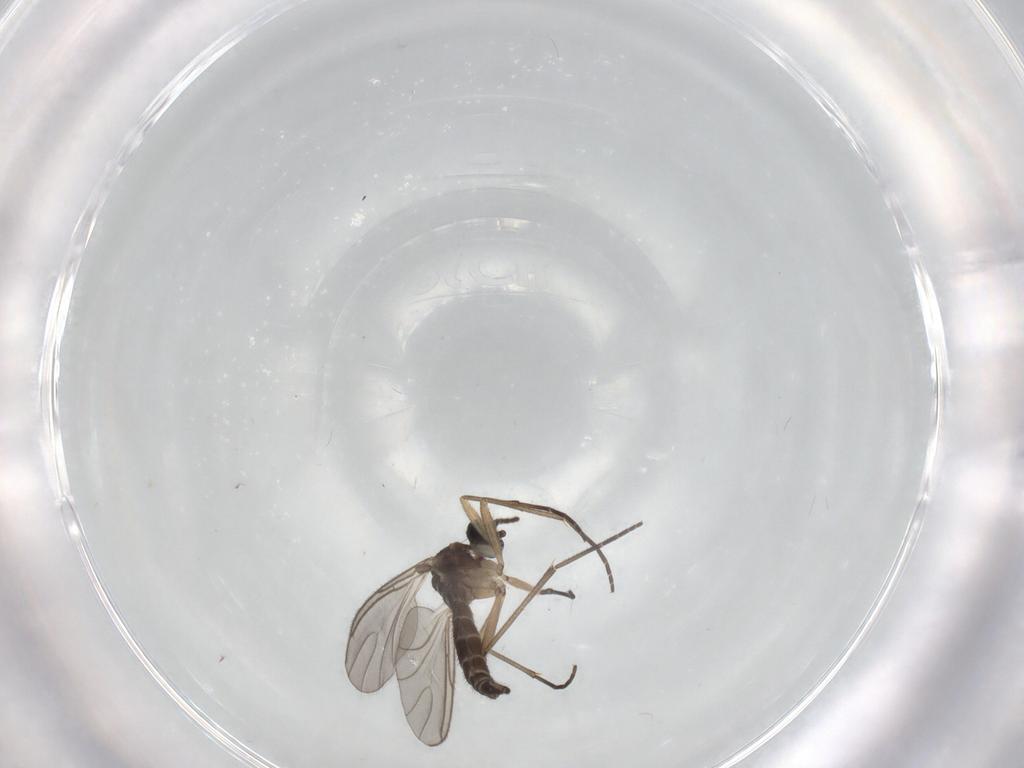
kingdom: Animalia
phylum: Arthropoda
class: Insecta
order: Diptera
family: Sciaridae
